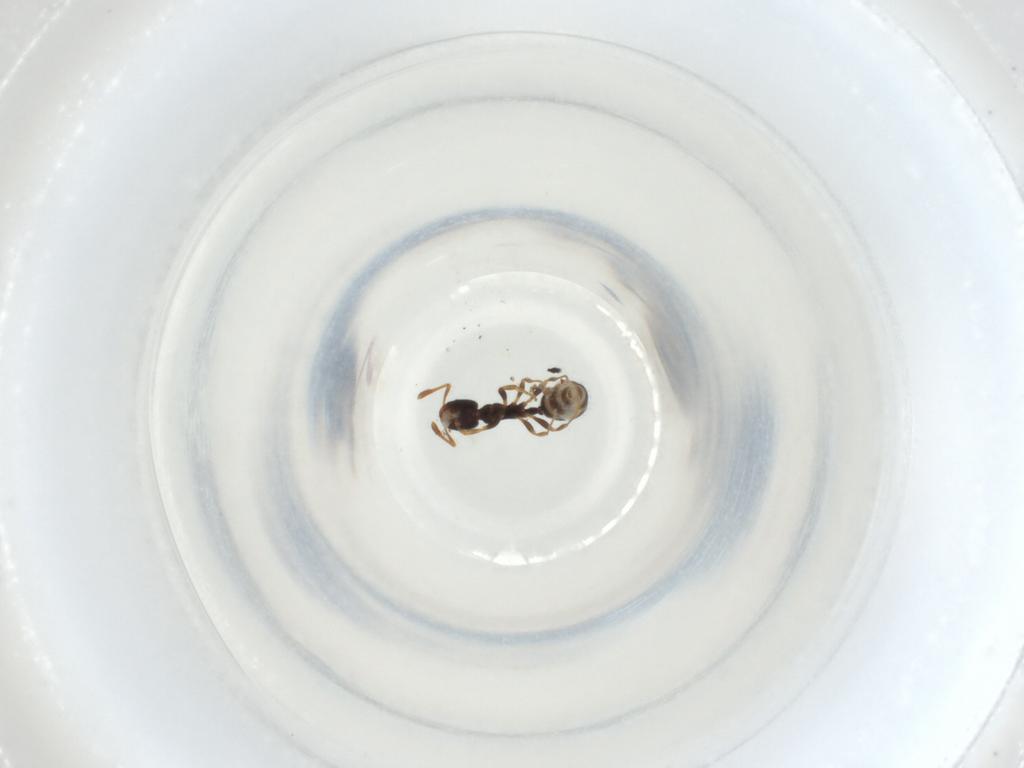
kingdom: Animalia
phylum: Arthropoda
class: Insecta
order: Hymenoptera
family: Formicidae
